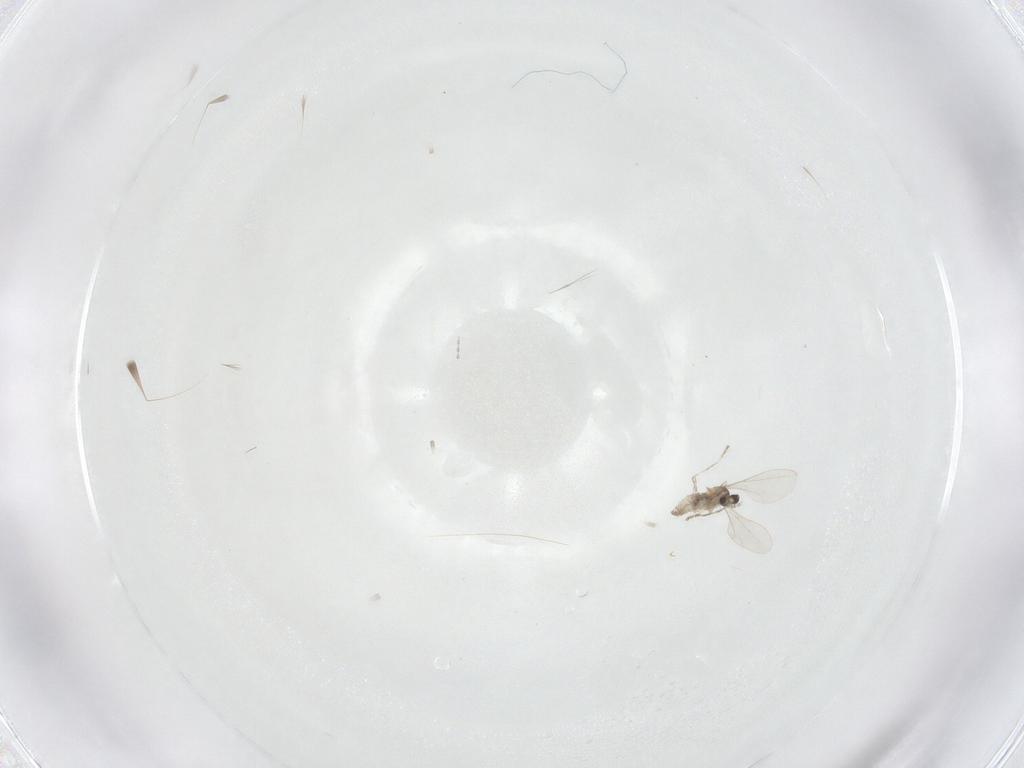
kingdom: Animalia
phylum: Arthropoda
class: Insecta
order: Diptera
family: Cecidomyiidae
